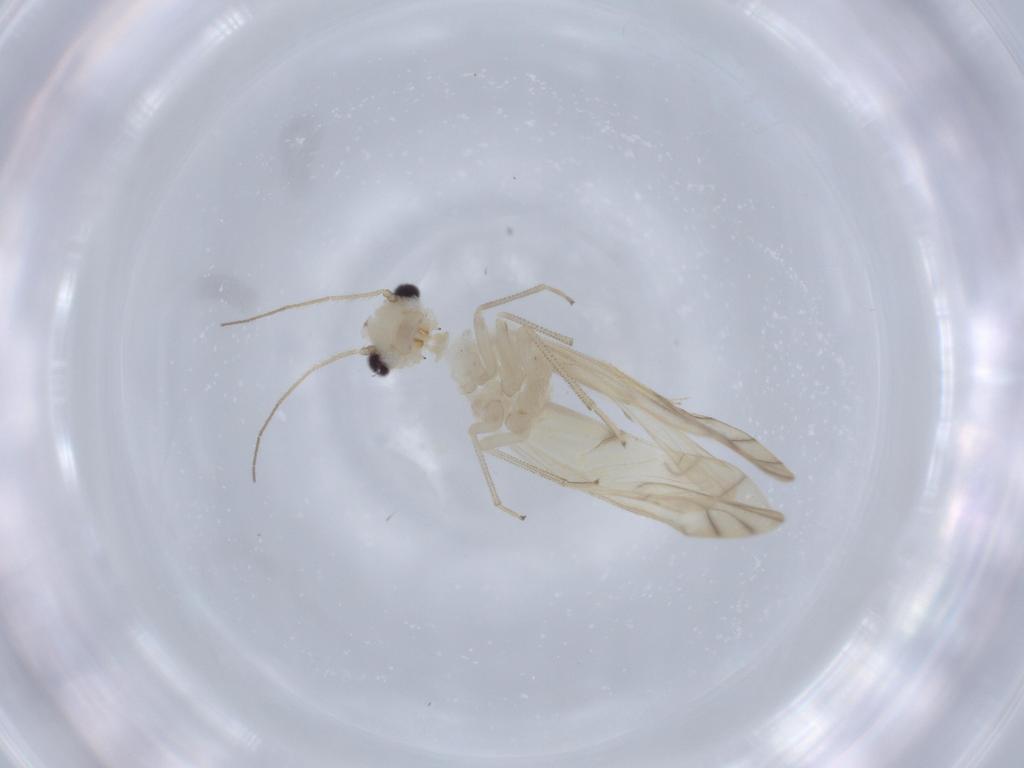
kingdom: Animalia
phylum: Arthropoda
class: Insecta
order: Psocodea
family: Caeciliusidae
